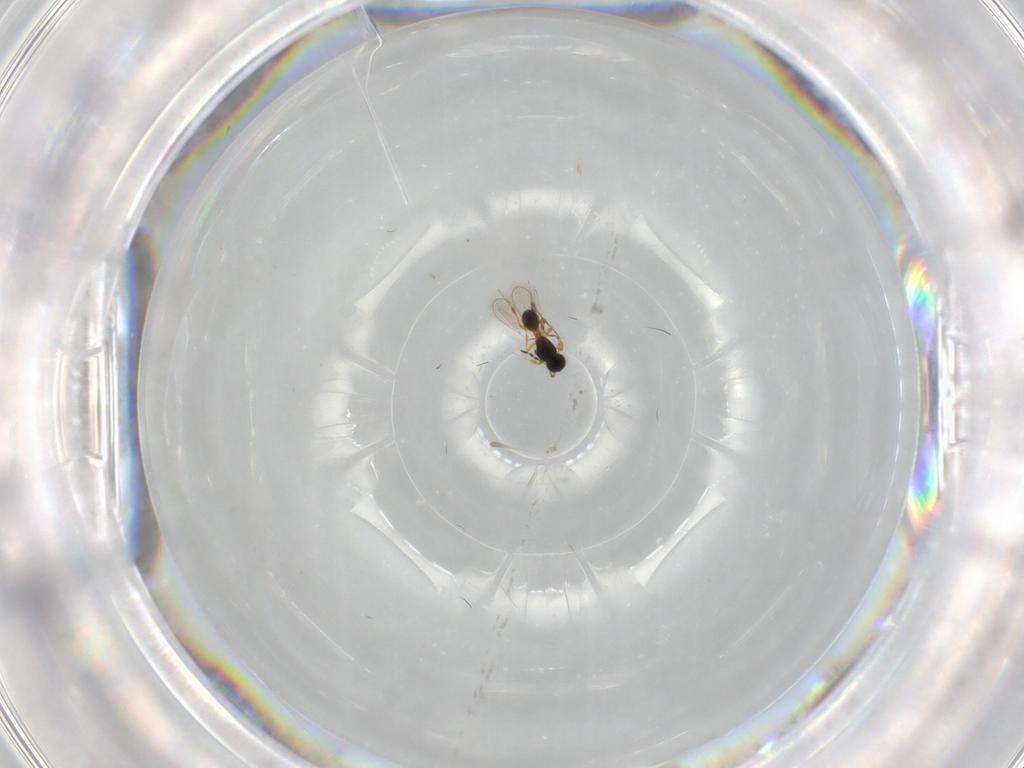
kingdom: Animalia
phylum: Arthropoda
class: Insecta
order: Hymenoptera
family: Platygastridae
